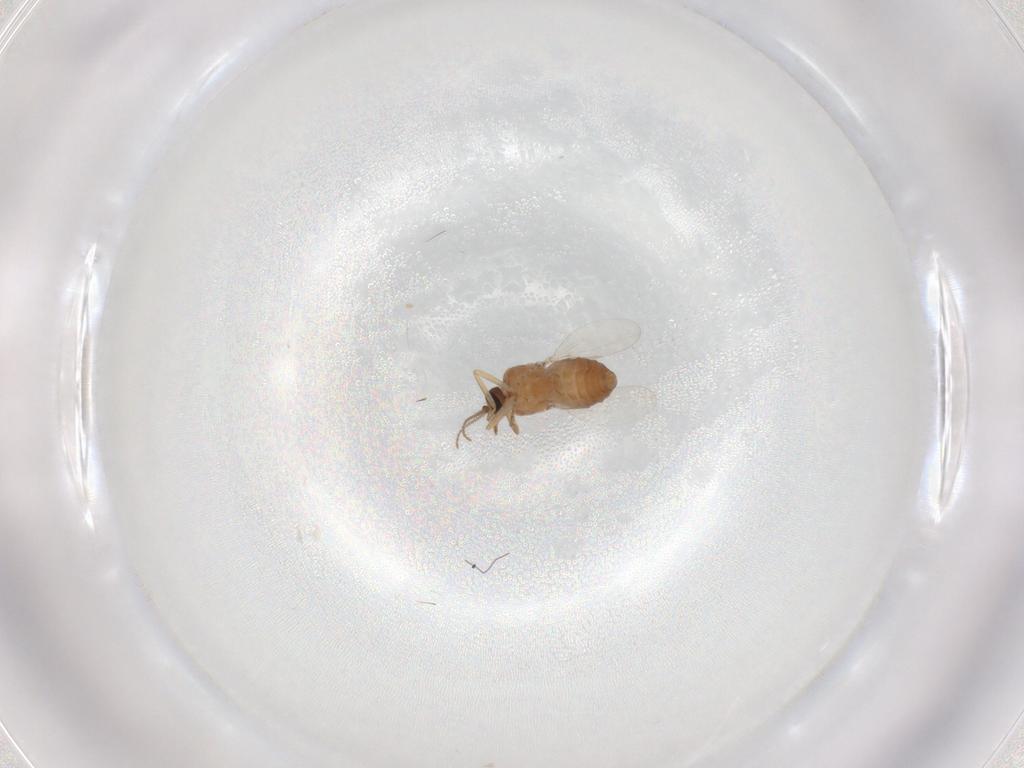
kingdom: Animalia
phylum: Arthropoda
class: Insecta
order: Diptera
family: Ceratopogonidae
